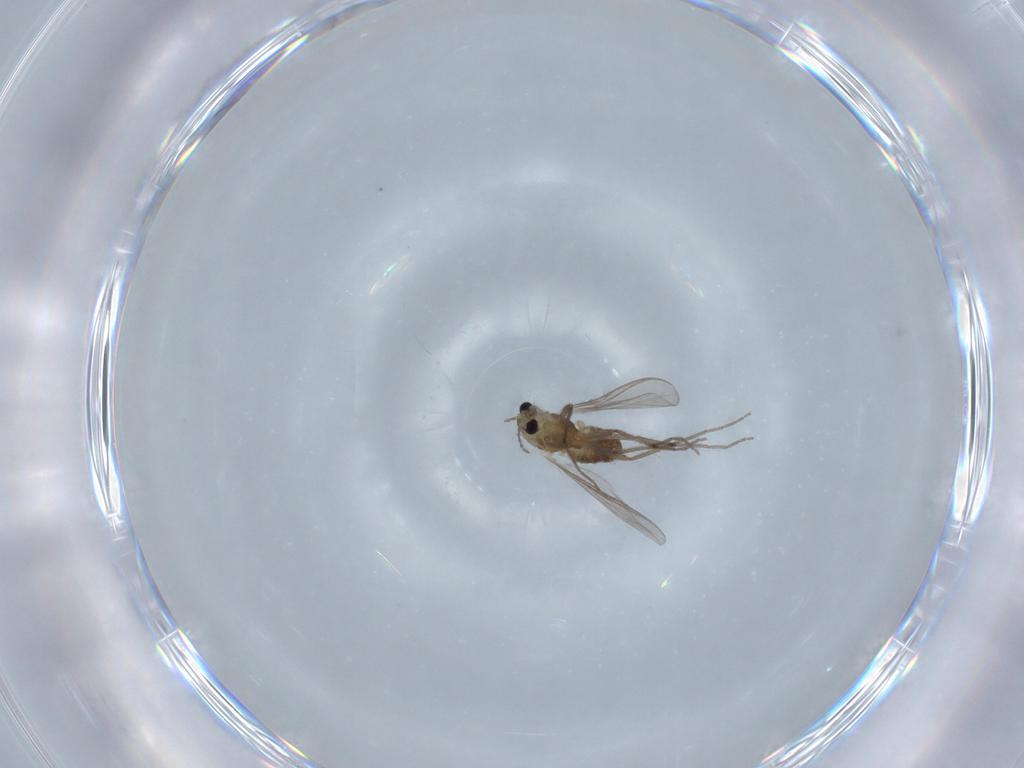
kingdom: Animalia
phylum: Arthropoda
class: Insecta
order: Diptera
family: Chironomidae
